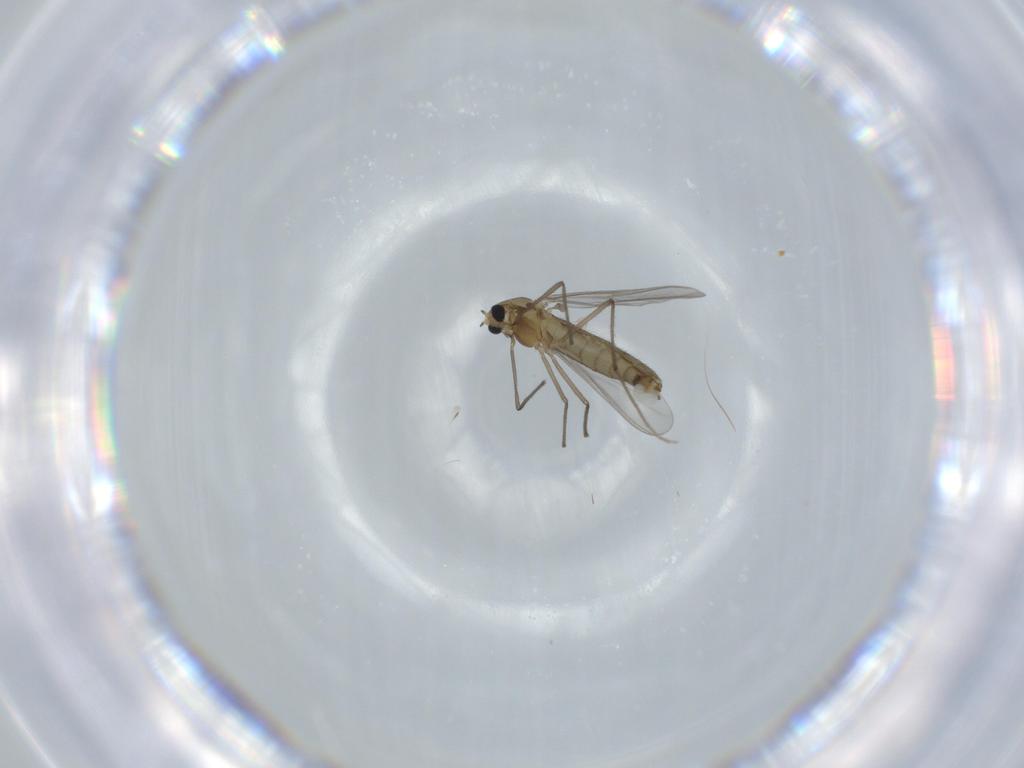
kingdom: Animalia
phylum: Arthropoda
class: Insecta
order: Diptera
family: Chironomidae
